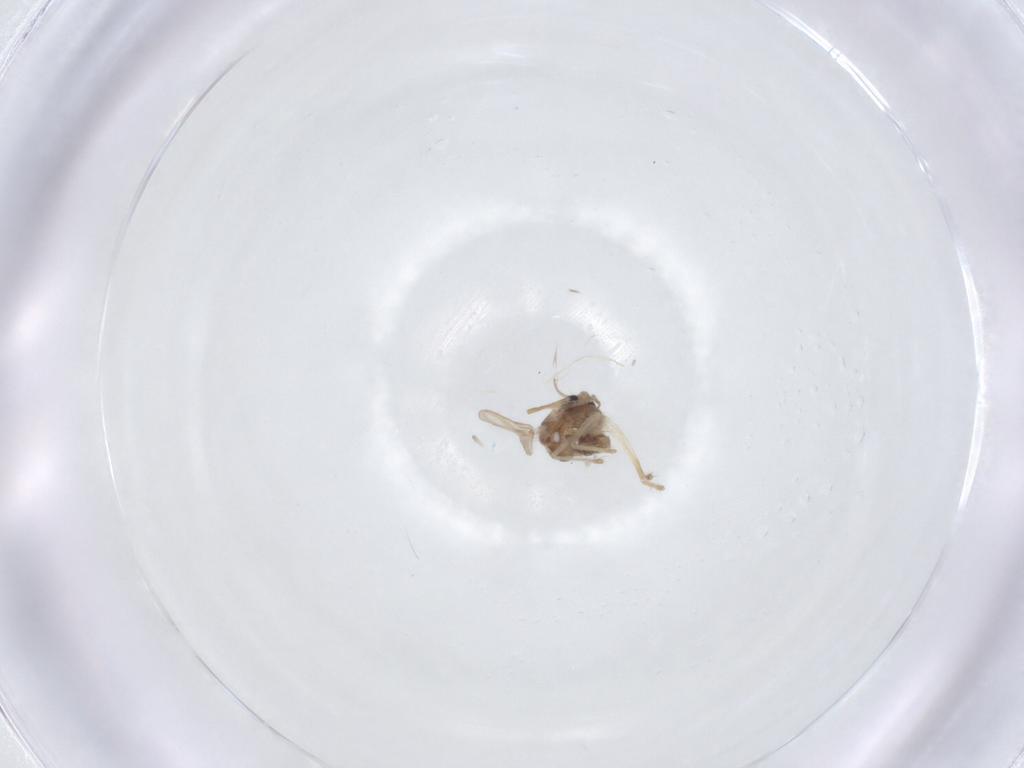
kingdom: Animalia
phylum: Arthropoda
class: Insecta
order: Diptera
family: Chironomidae
